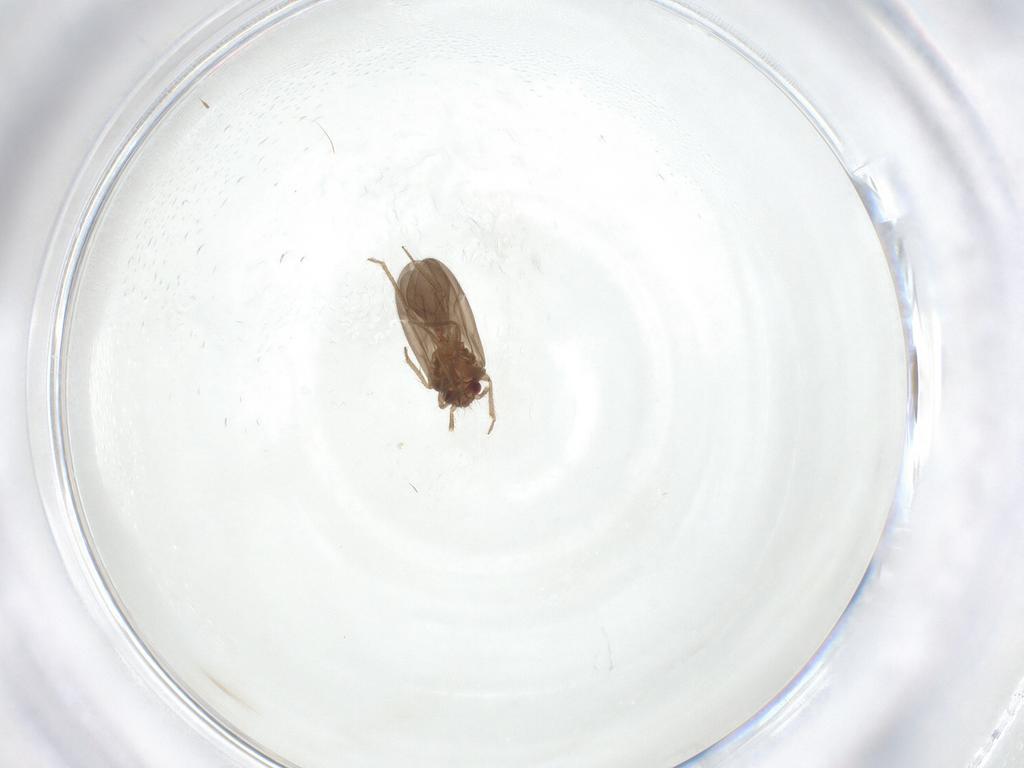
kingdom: Animalia
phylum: Arthropoda
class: Insecta
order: Hemiptera
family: Ceratocombidae
